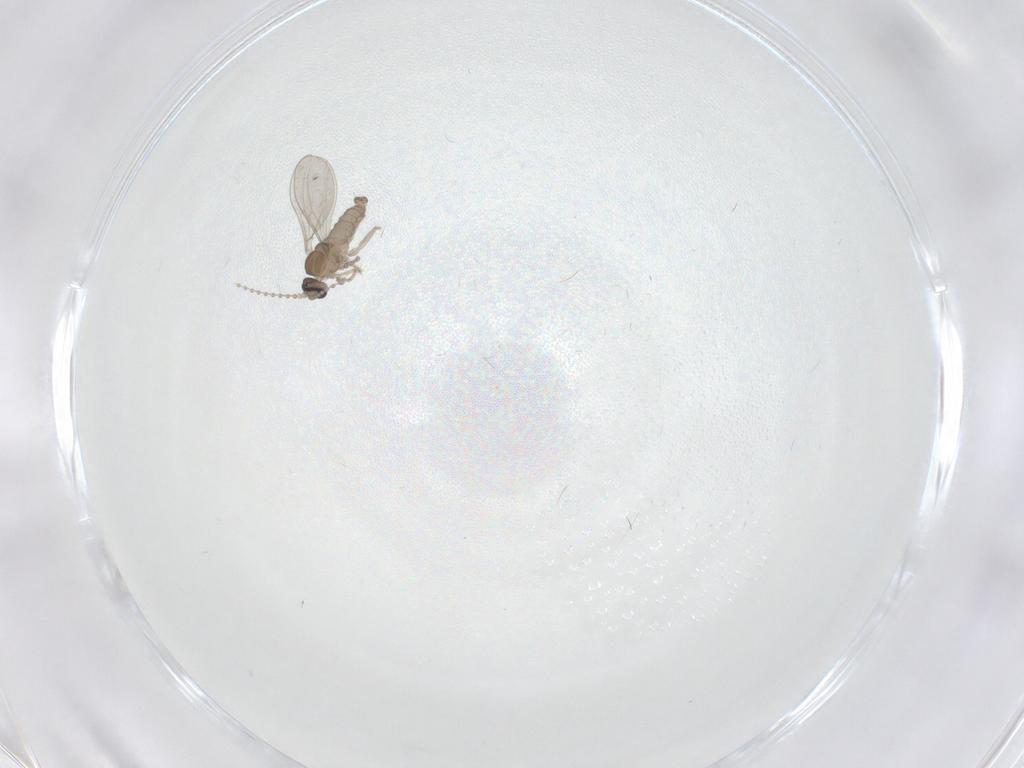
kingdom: Animalia
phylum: Arthropoda
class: Insecta
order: Diptera
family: Cecidomyiidae
